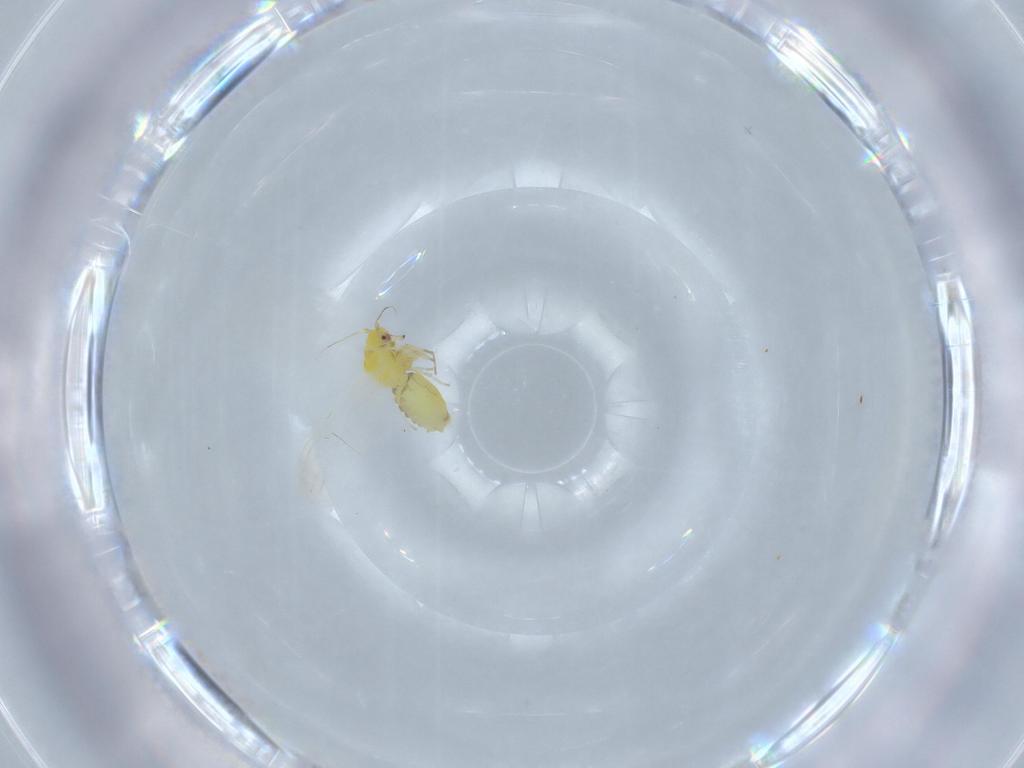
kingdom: Animalia
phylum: Arthropoda
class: Insecta
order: Hemiptera
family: Aleyrodidae
